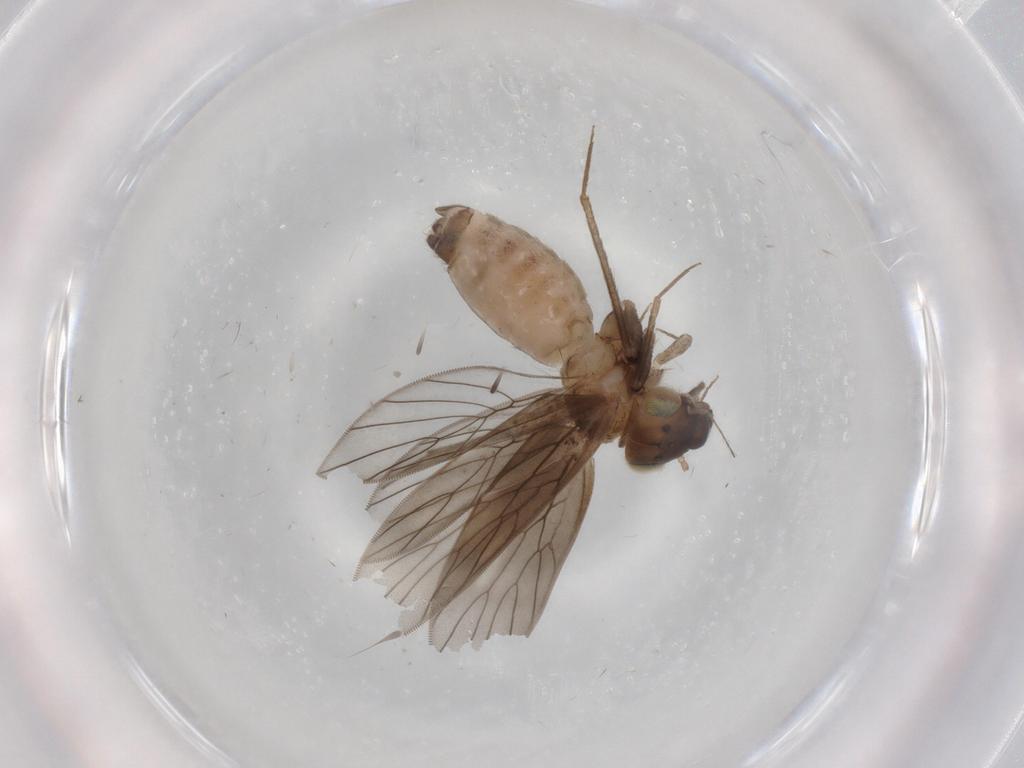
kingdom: Animalia
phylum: Arthropoda
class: Insecta
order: Psocodea
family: Lepidopsocidae
